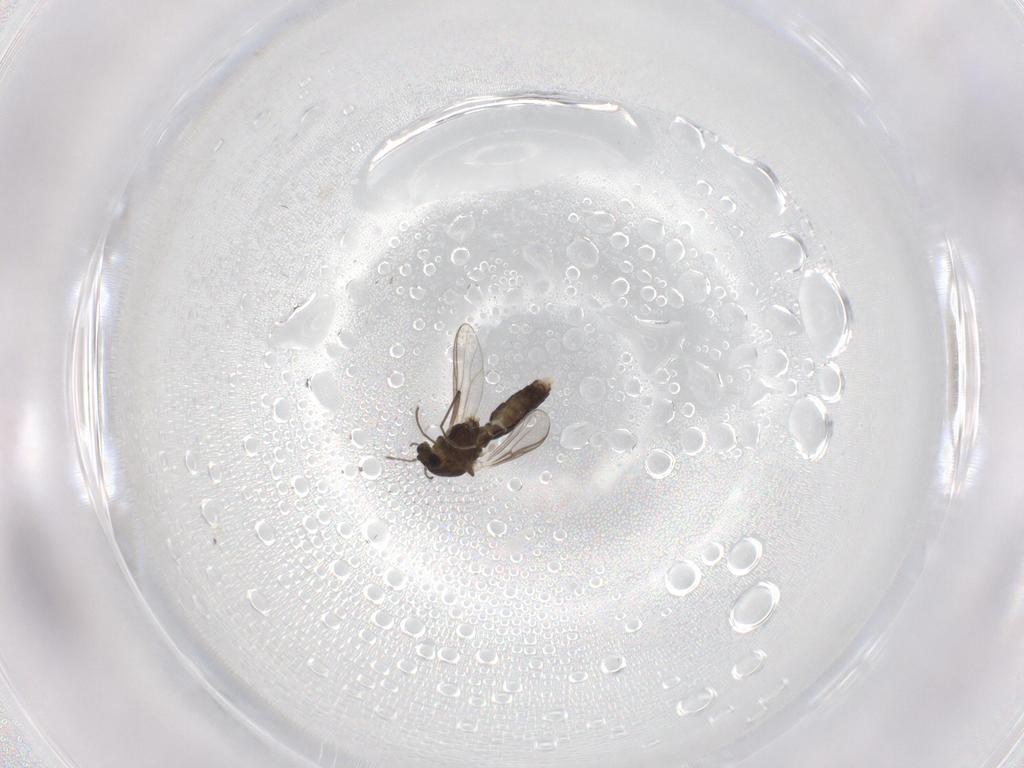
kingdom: Animalia
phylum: Arthropoda
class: Insecta
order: Diptera
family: Chironomidae
